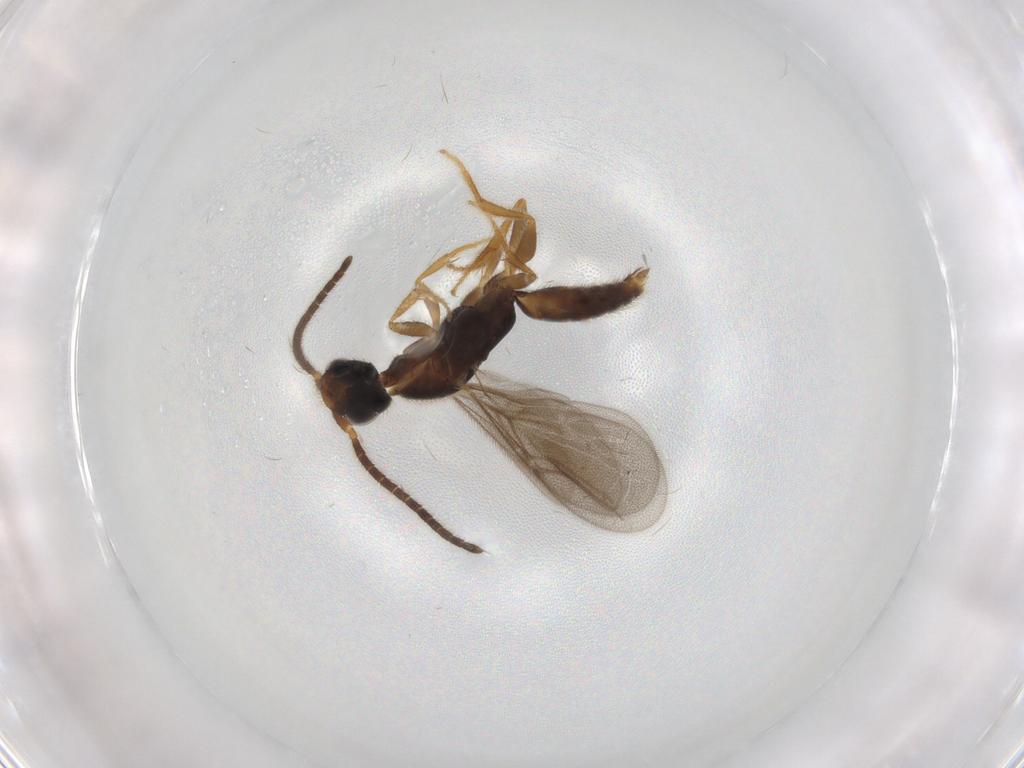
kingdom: Animalia
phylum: Arthropoda
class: Insecta
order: Hymenoptera
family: Bethylidae
